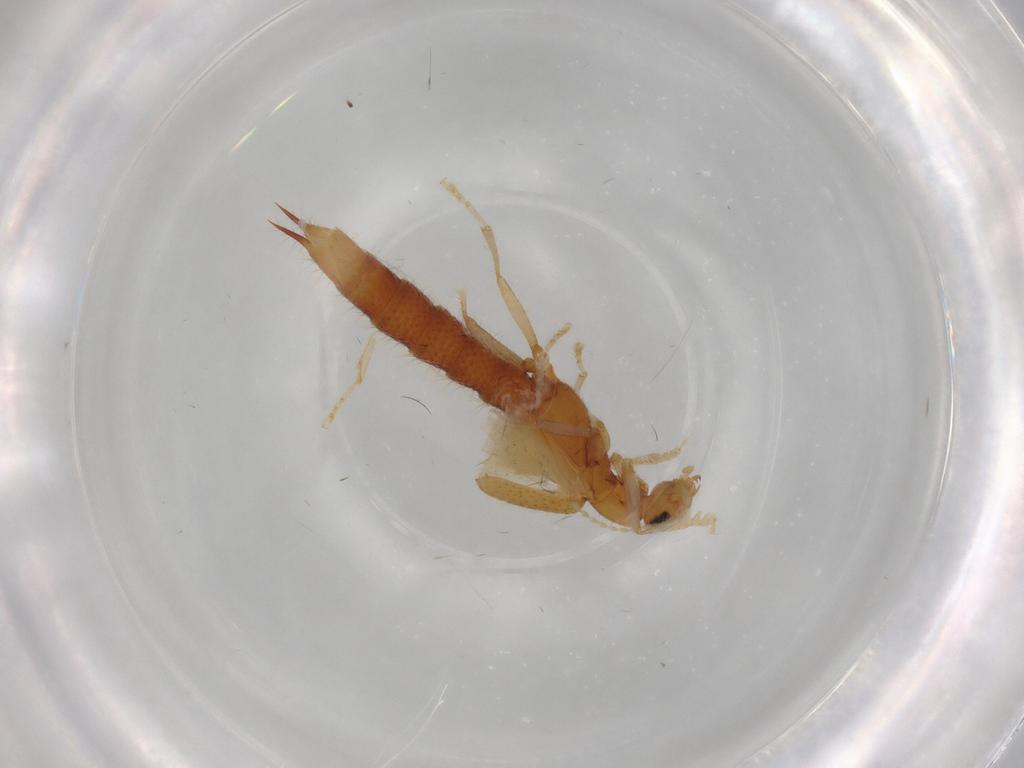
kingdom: Animalia
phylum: Arthropoda
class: Insecta
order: Coleoptera
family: Staphylinidae
